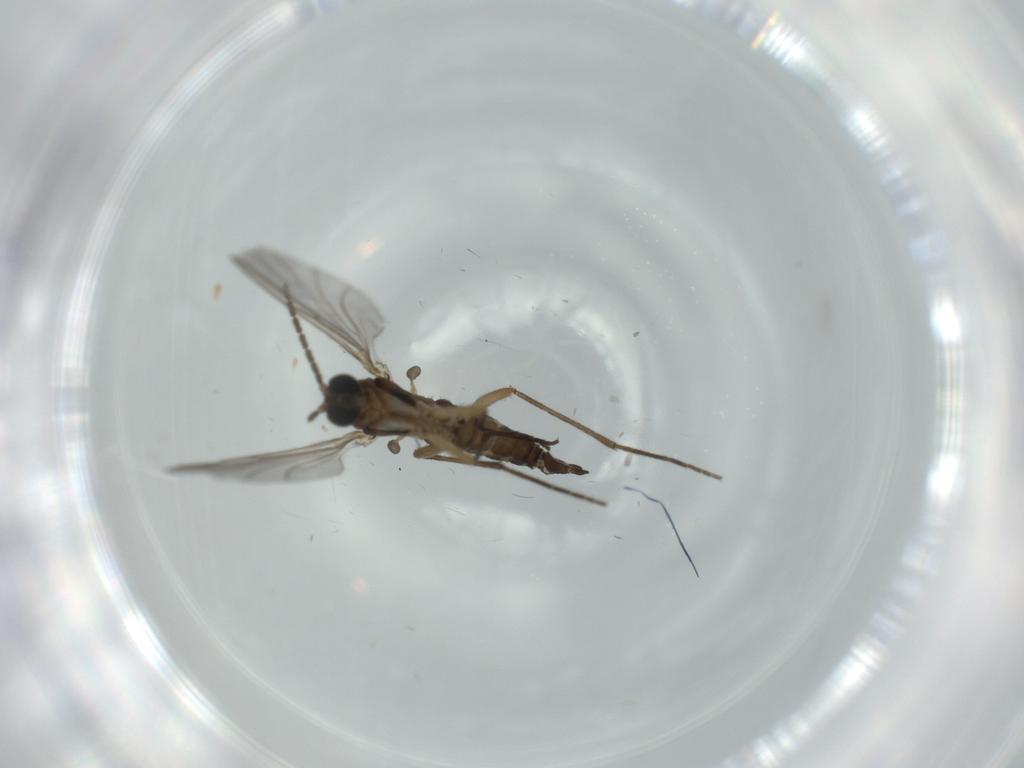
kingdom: Animalia
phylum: Arthropoda
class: Insecta
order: Diptera
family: Sciaridae
